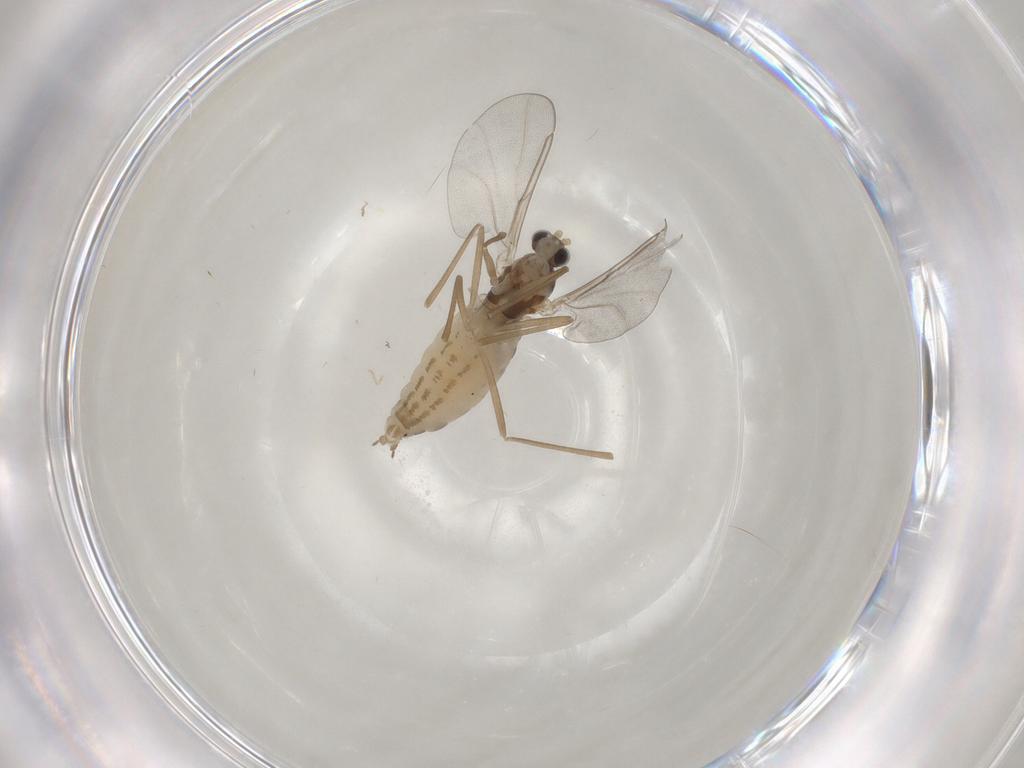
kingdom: Animalia
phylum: Arthropoda
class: Insecta
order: Diptera
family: Cecidomyiidae
